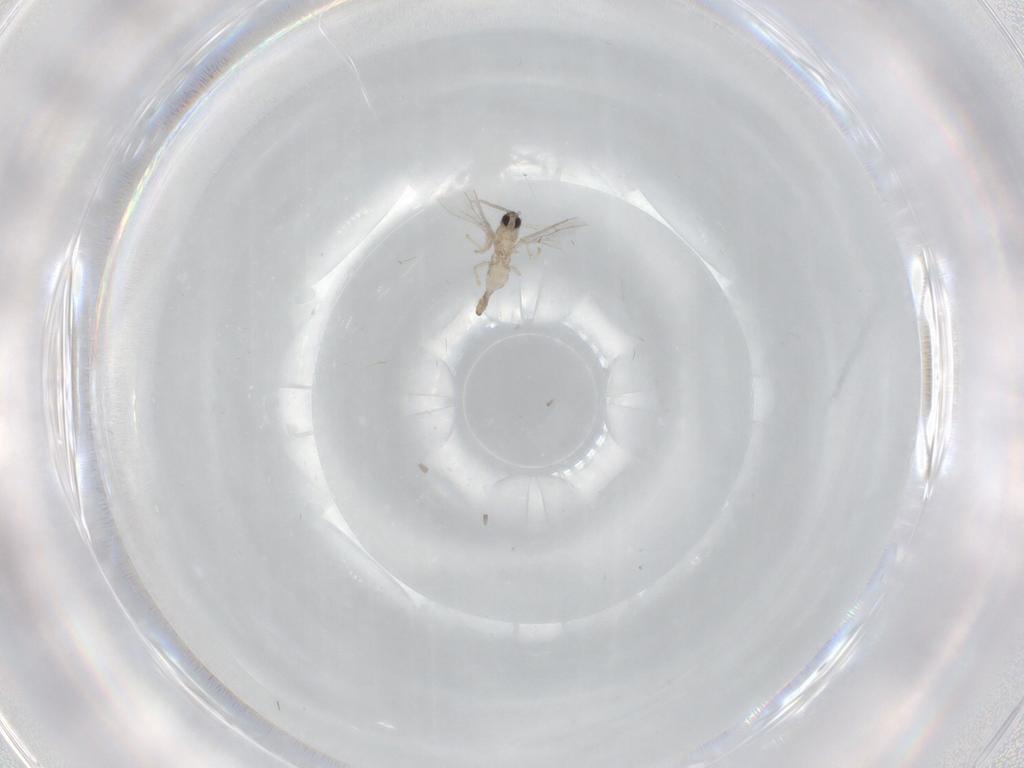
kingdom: Animalia
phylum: Arthropoda
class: Insecta
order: Diptera
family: Cecidomyiidae
